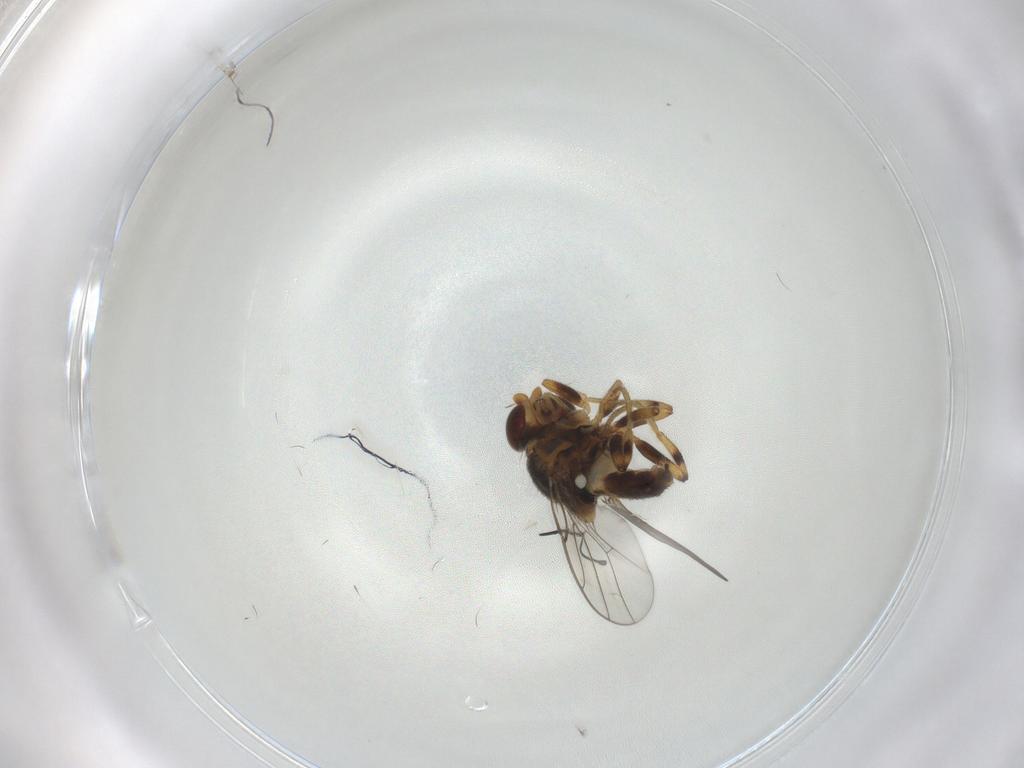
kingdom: Animalia
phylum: Arthropoda
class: Insecta
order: Diptera
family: Chloropidae
